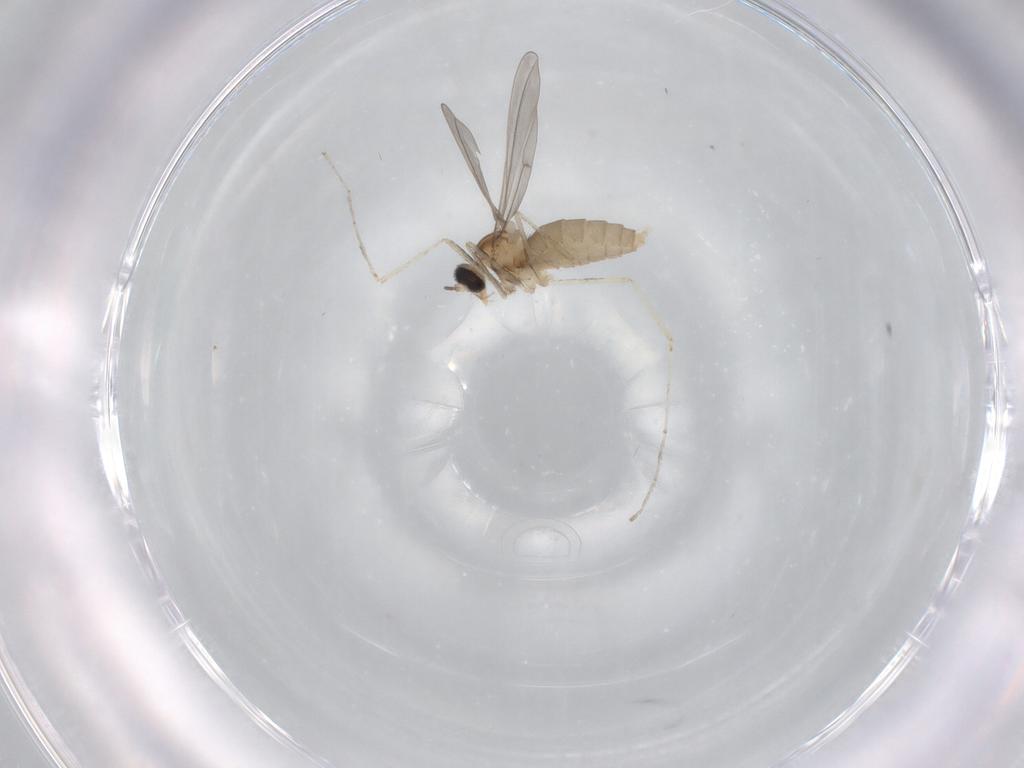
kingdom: Animalia
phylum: Arthropoda
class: Insecta
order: Diptera
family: Cecidomyiidae
